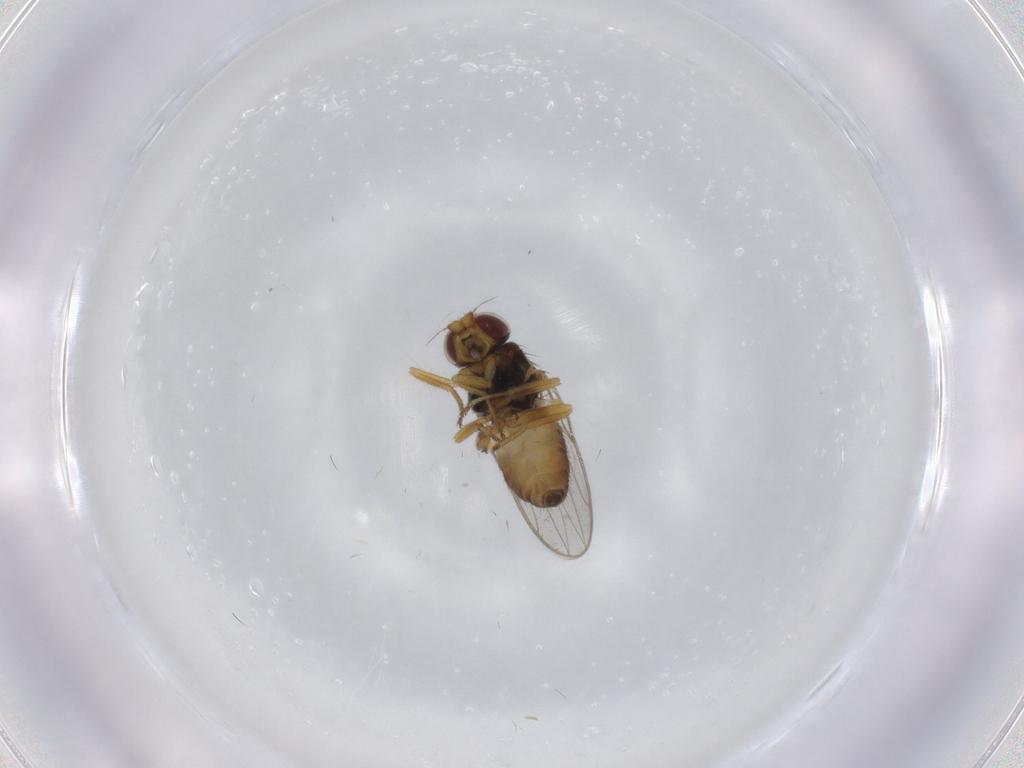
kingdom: Animalia
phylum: Arthropoda
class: Insecta
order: Diptera
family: Chloropidae
